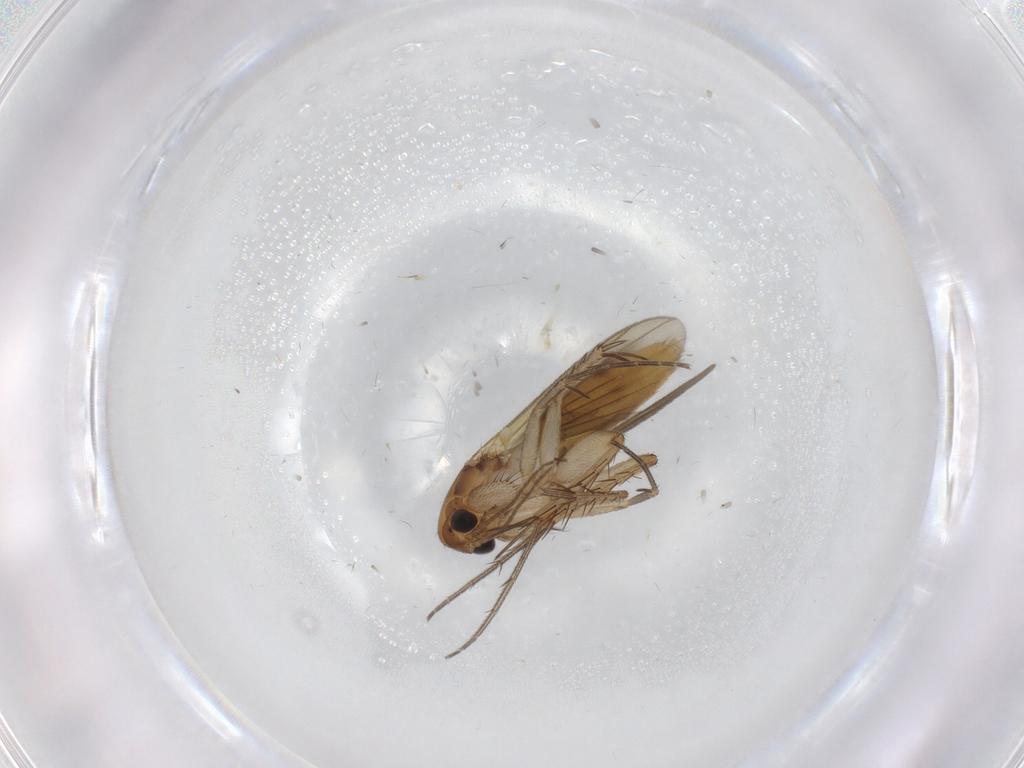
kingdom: Animalia
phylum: Arthropoda
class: Insecta
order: Diptera
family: Mycetophilidae
